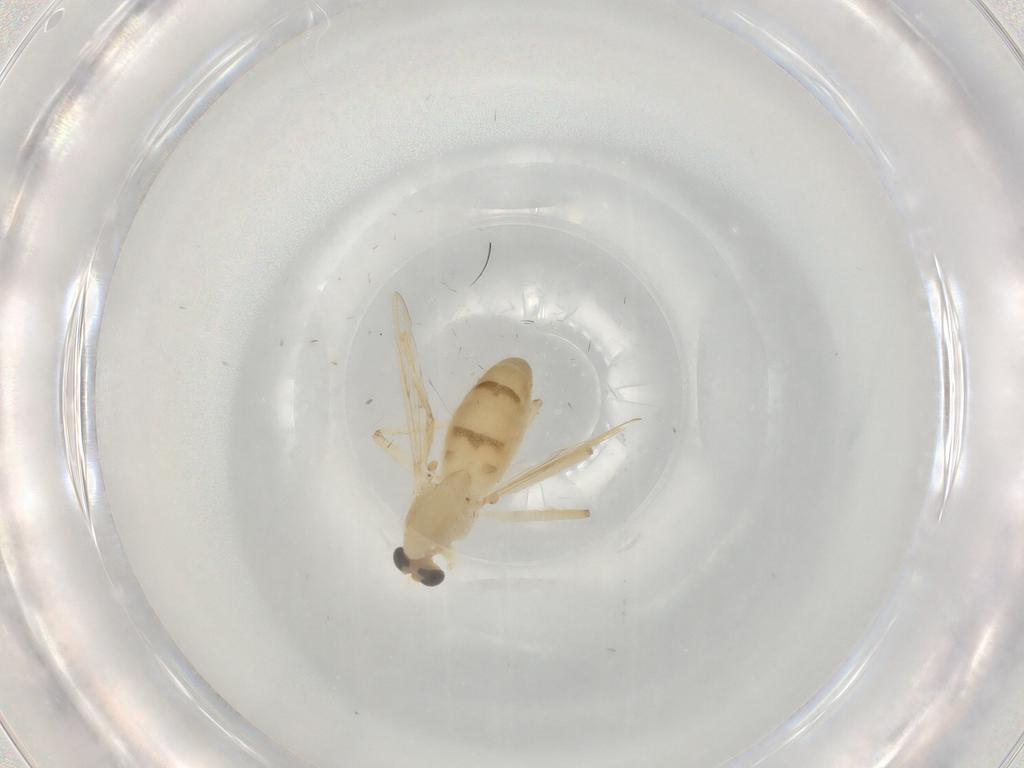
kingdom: Animalia
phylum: Arthropoda
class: Insecta
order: Diptera
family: Chironomidae
